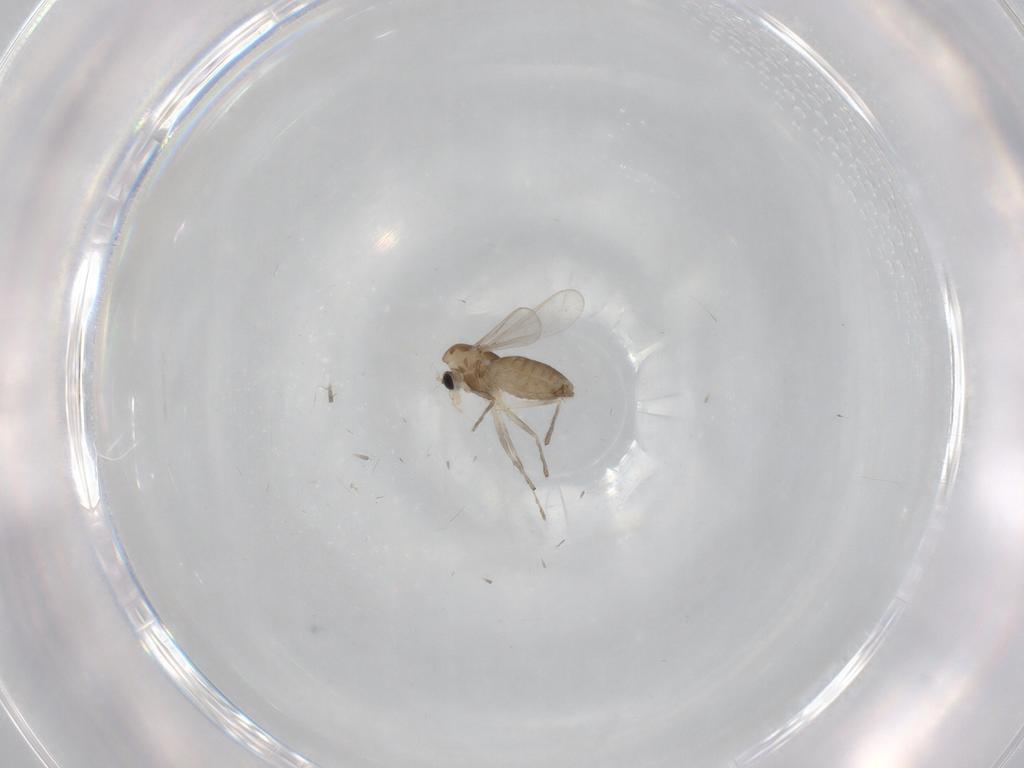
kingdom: Animalia
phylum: Arthropoda
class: Insecta
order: Diptera
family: Chironomidae
